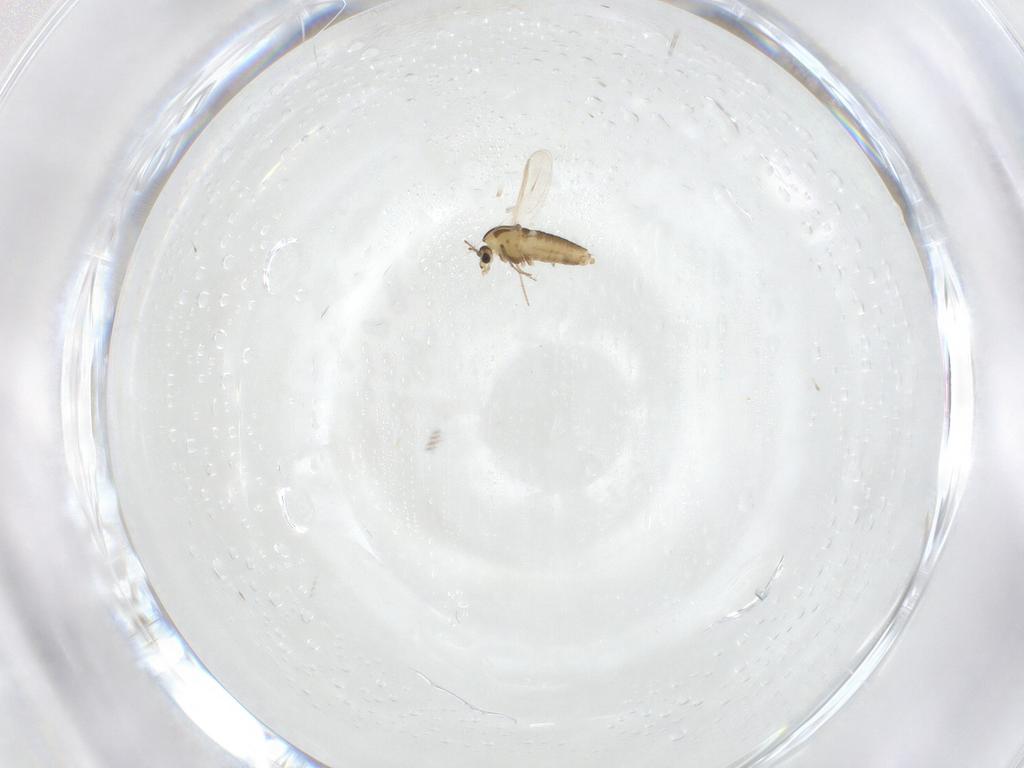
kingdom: Animalia
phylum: Arthropoda
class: Insecta
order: Diptera
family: Chironomidae
